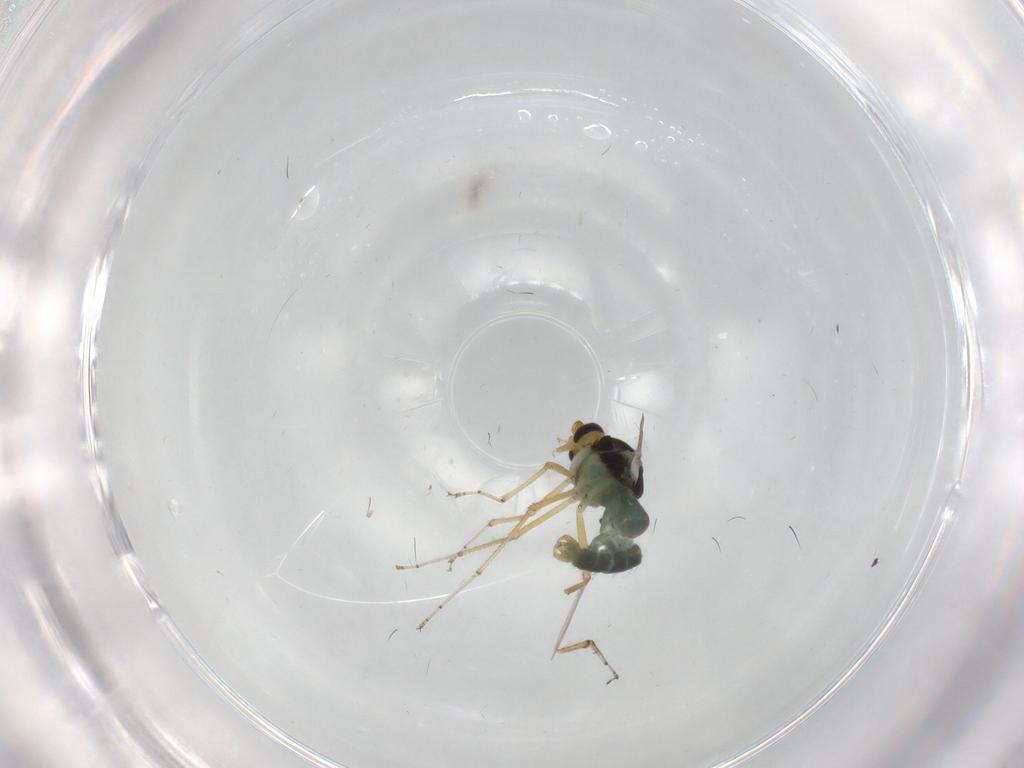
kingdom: Animalia
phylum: Arthropoda
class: Insecta
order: Diptera
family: Ceratopogonidae
